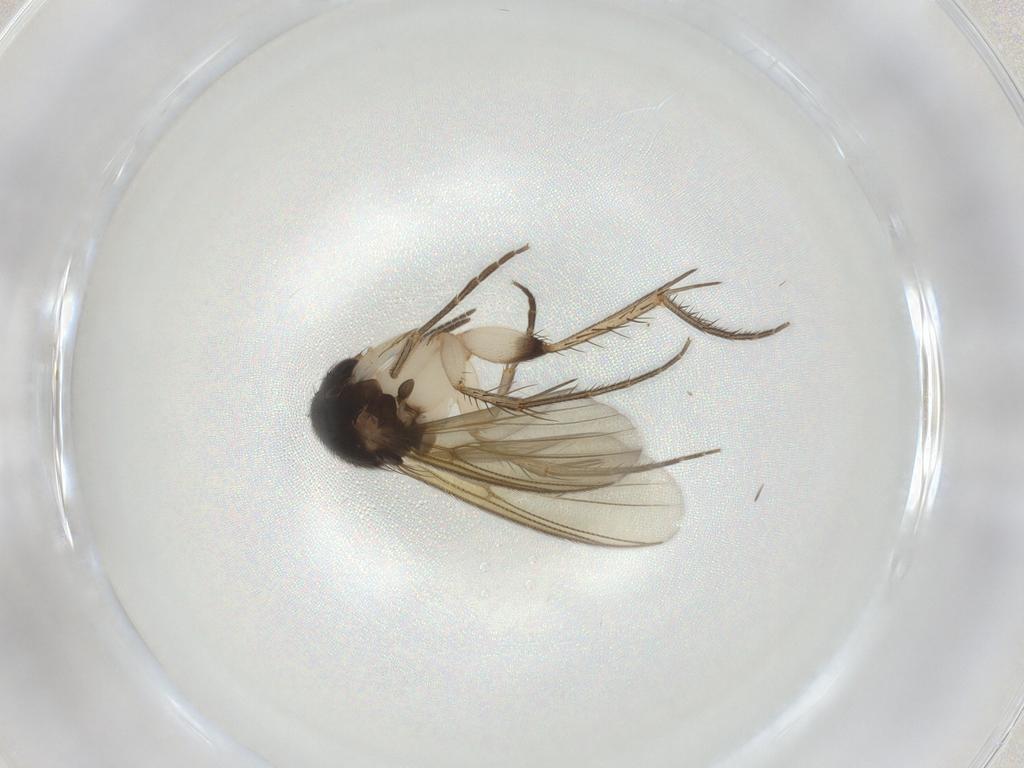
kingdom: Animalia
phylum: Arthropoda
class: Insecta
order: Diptera
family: Mycetophilidae
